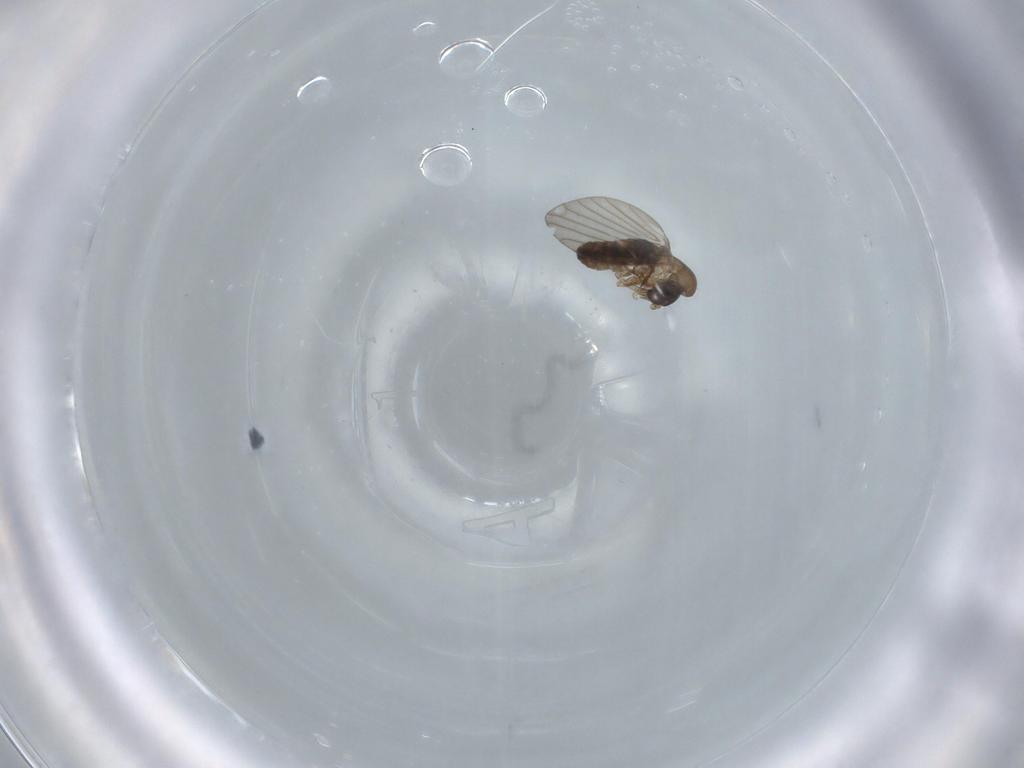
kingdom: Animalia
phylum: Arthropoda
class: Insecta
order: Diptera
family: Psychodidae
